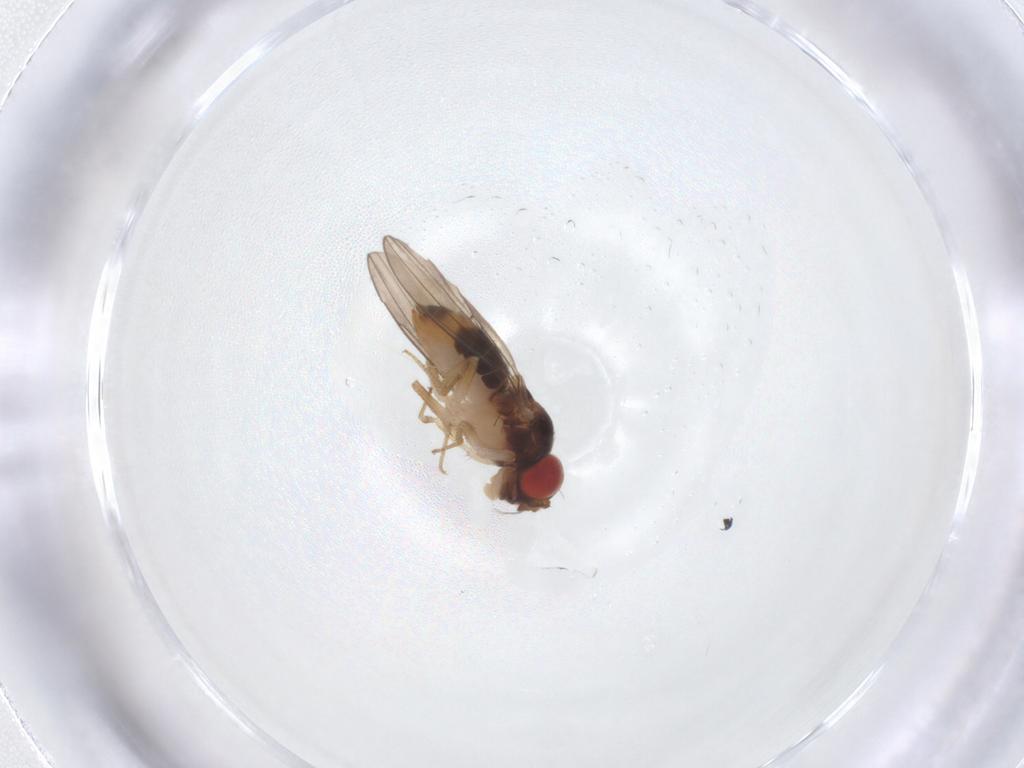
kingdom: Animalia
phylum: Arthropoda
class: Insecta
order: Diptera
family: Drosophilidae
